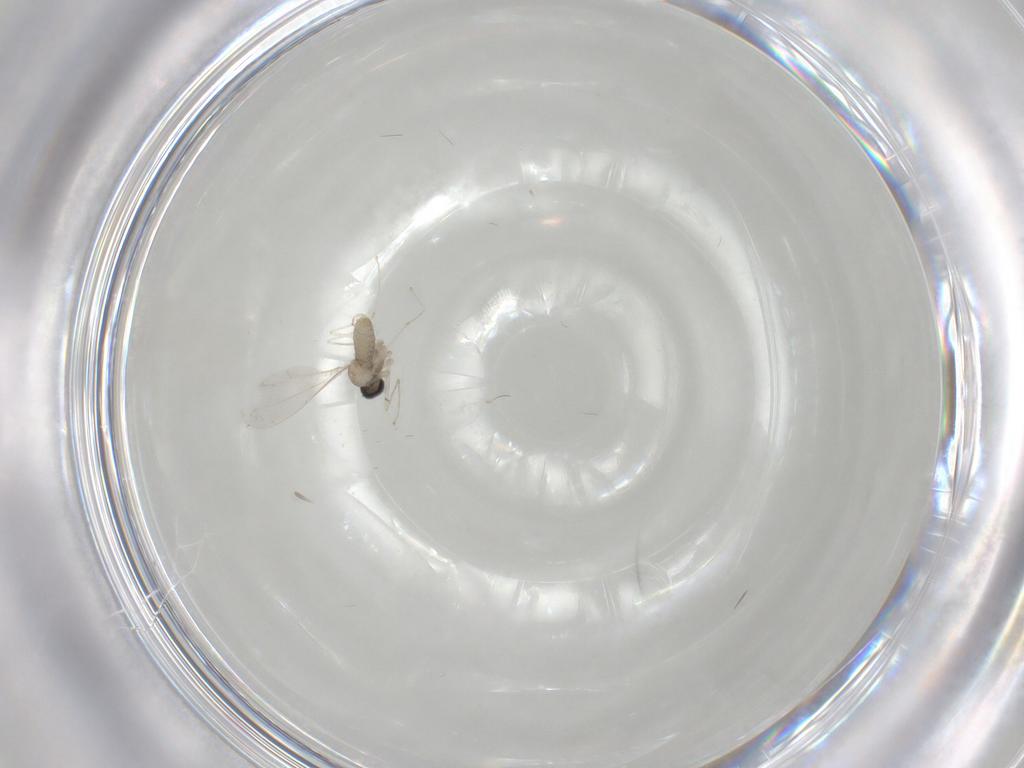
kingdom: Animalia
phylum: Arthropoda
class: Insecta
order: Diptera
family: Cecidomyiidae
